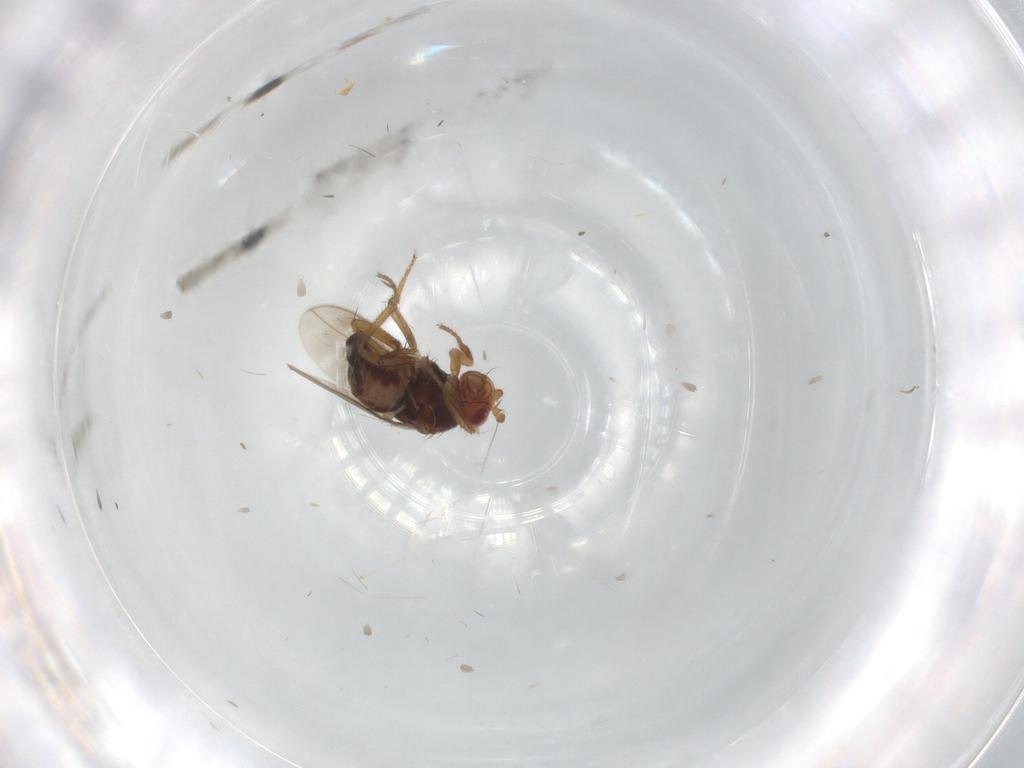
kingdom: Animalia
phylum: Arthropoda
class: Insecta
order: Diptera
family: Sphaeroceridae
